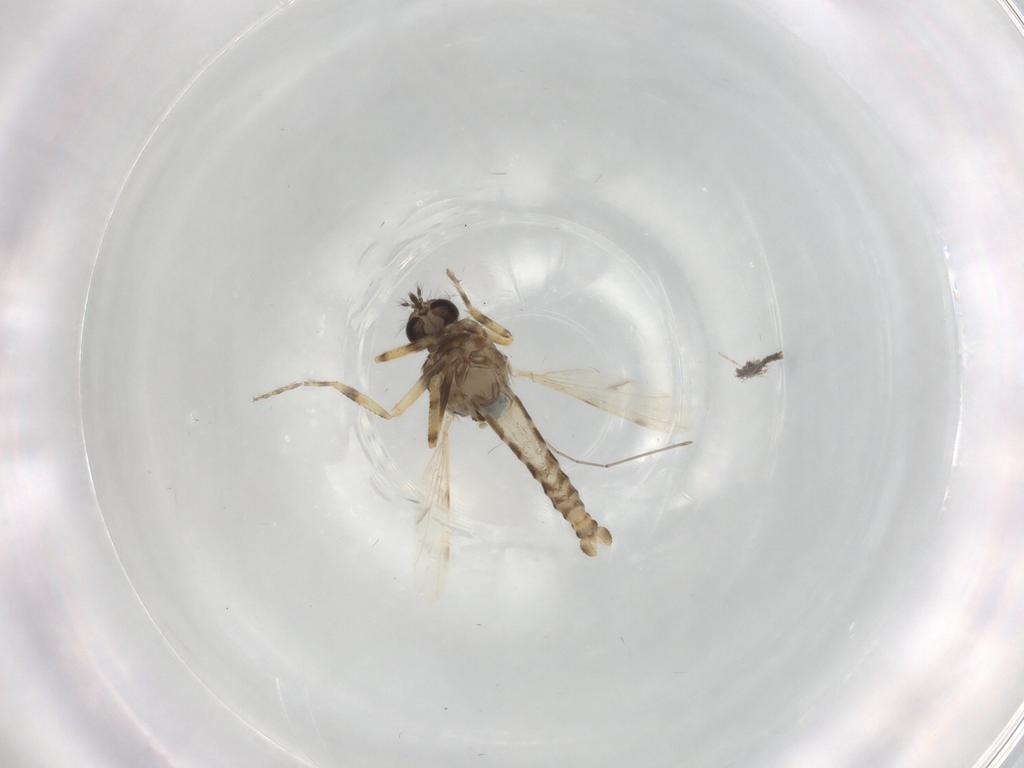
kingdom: Animalia
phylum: Arthropoda
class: Insecta
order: Diptera
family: Ceratopogonidae
